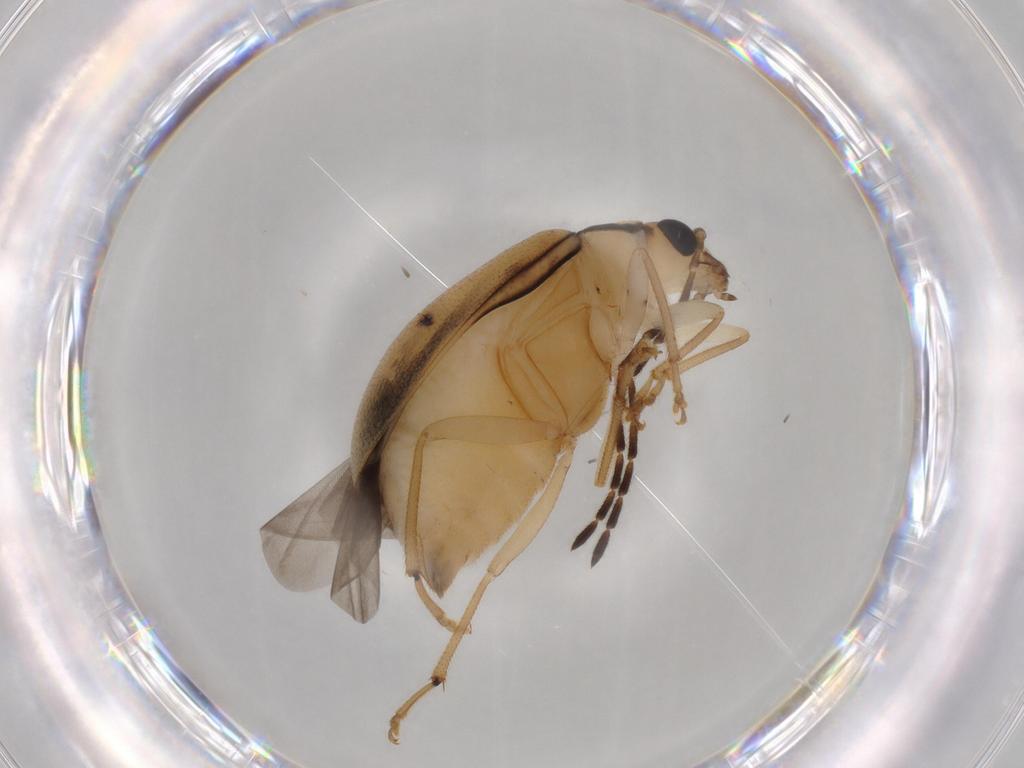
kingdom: Animalia
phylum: Arthropoda
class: Insecta
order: Coleoptera
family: Chrysomelidae
